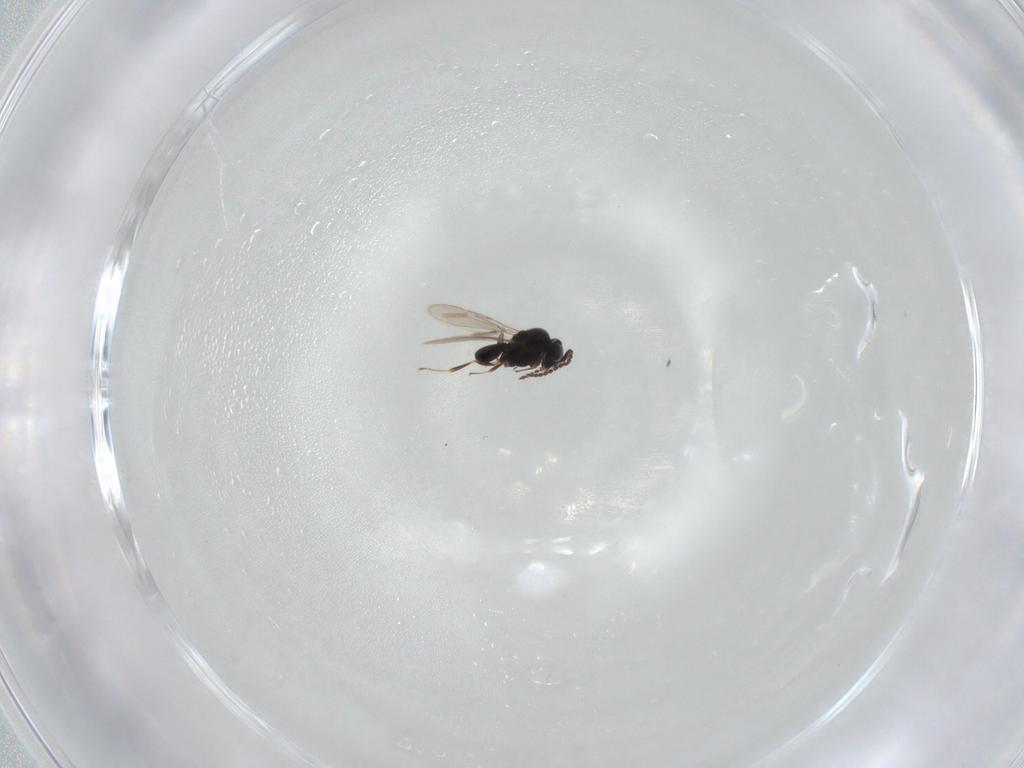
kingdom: Animalia
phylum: Arthropoda
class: Insecta
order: Hymenoptera
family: Scelionidae
